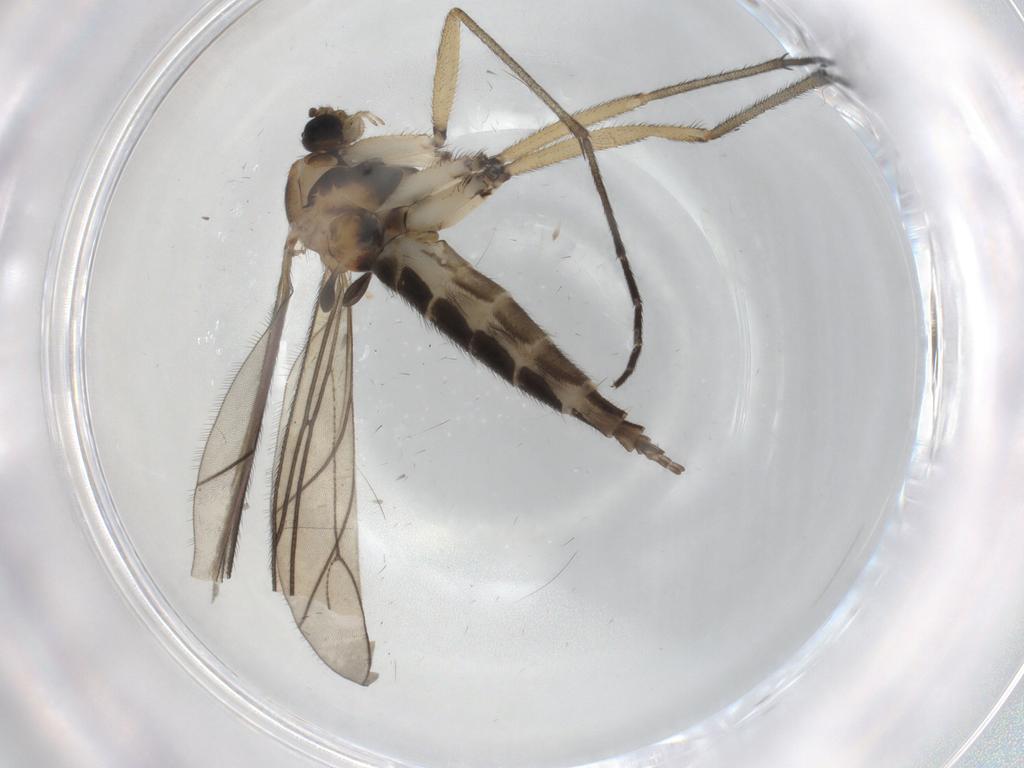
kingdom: Animalia
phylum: Arthropoda
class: Insecta
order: Diptera
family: Sciaridae
